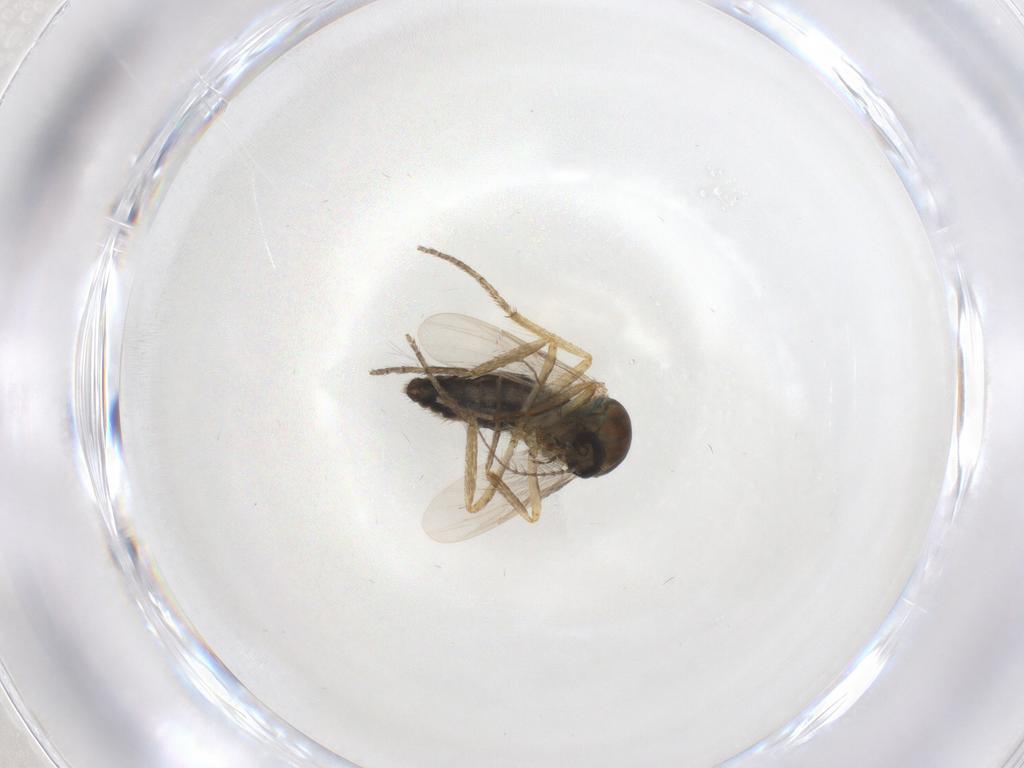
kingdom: Animalia
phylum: Arthropoda
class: Insecta
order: Diptera
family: Ceratopogonidae
